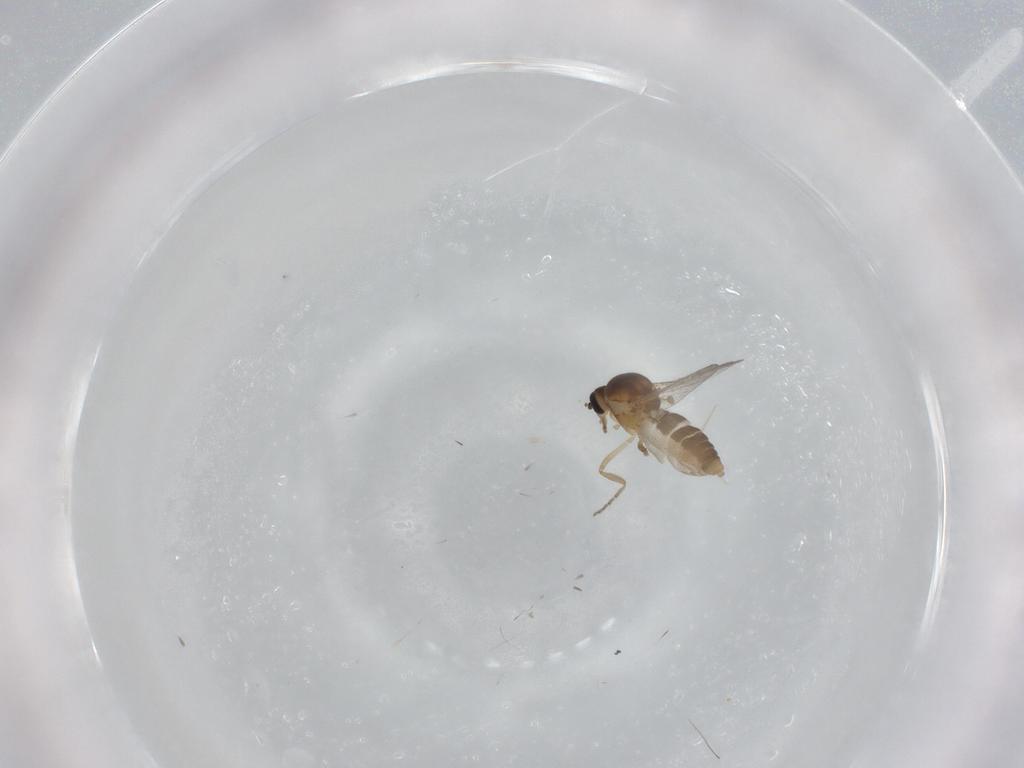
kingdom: Animalia
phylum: Arthropoda
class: Insecta
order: Diptera
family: Ceratopogonidae
